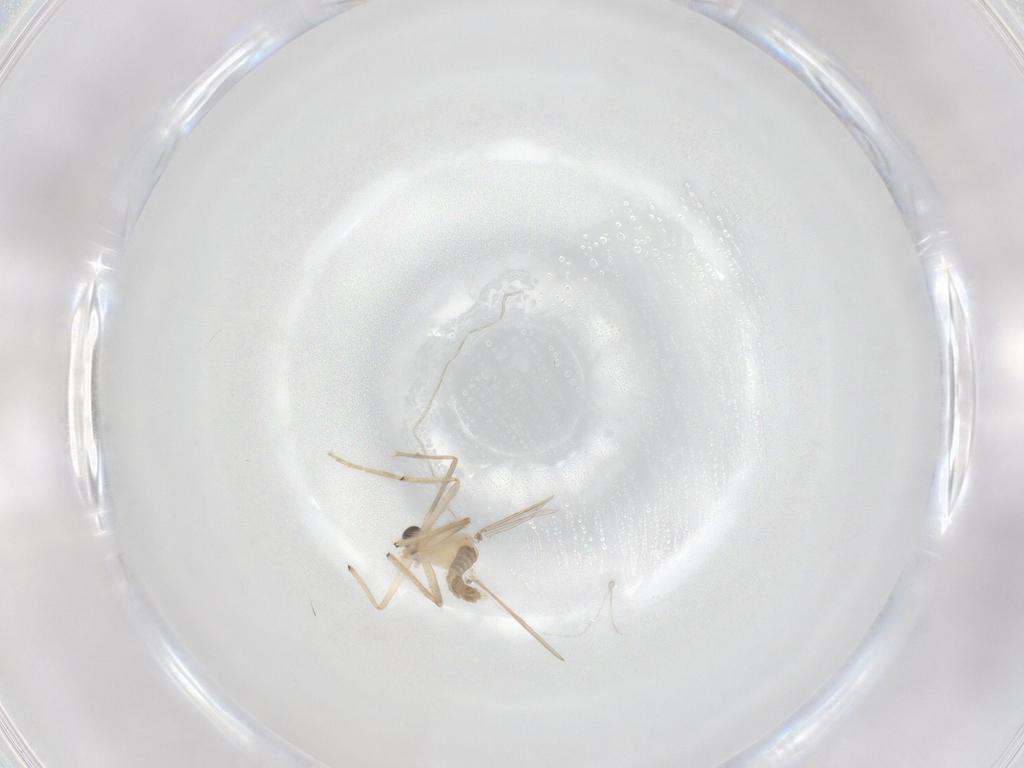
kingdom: Animalia
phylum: Arthropoda
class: Insecta
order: Diptera
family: Chironomidae
